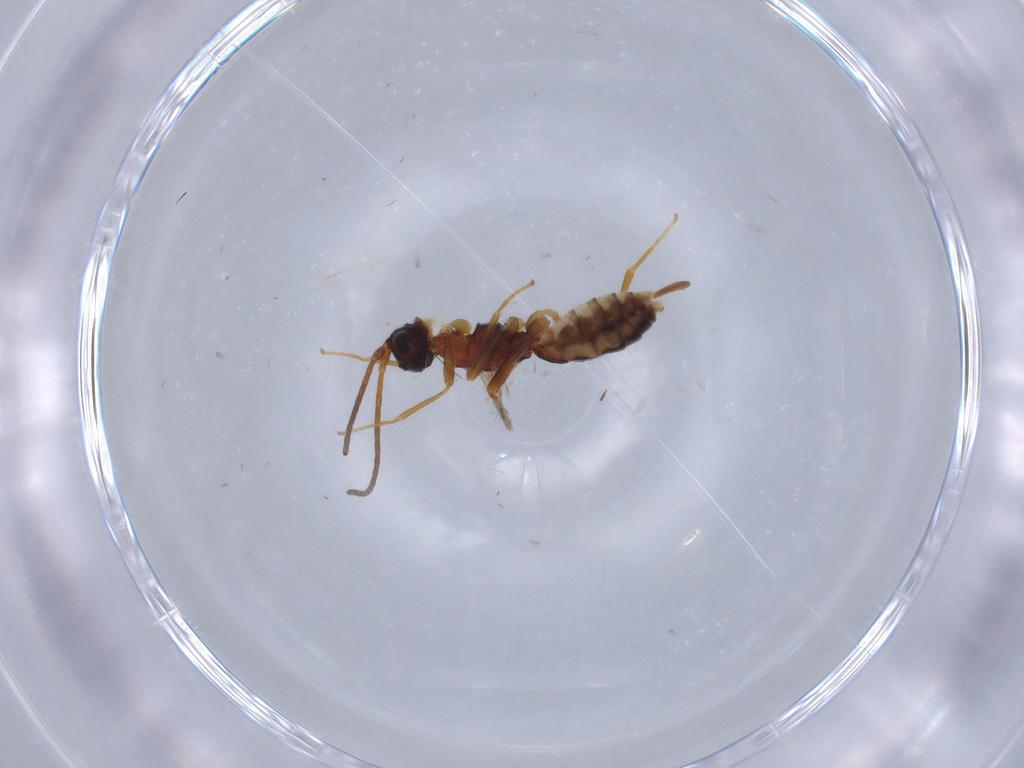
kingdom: Animalia
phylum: Arthropoda
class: Insecta
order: Hymenoptera
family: Braconidae
